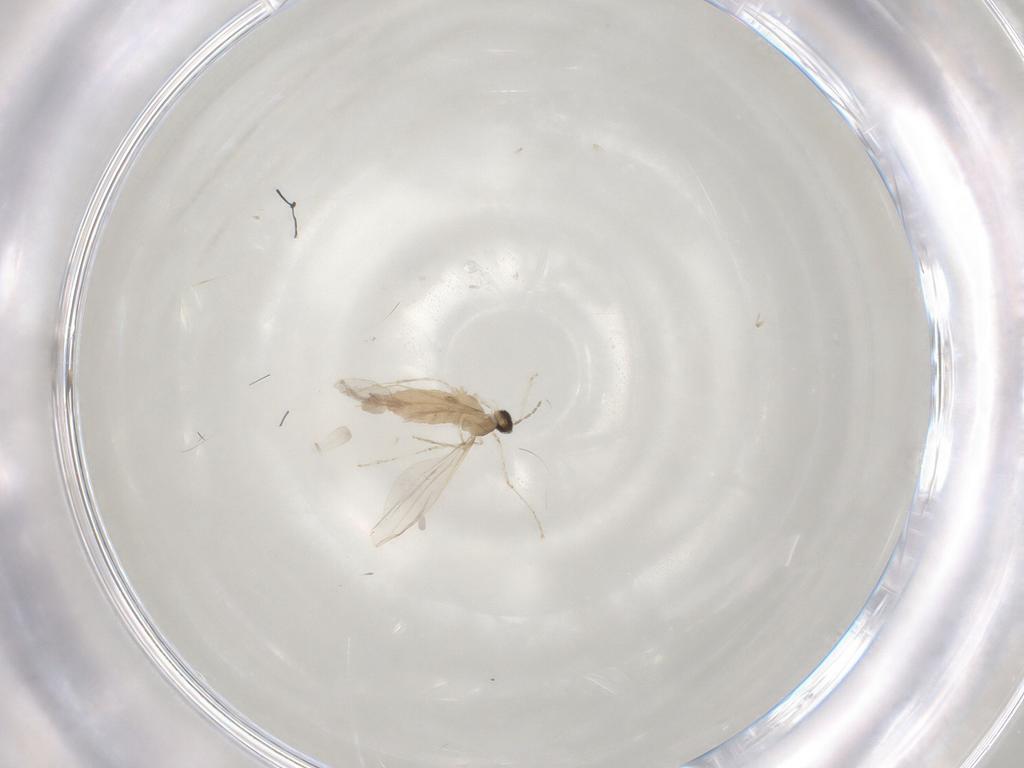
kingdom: Animalia
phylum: Arthropoda
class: Insecta
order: Diptera
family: Cecidomyiidae
